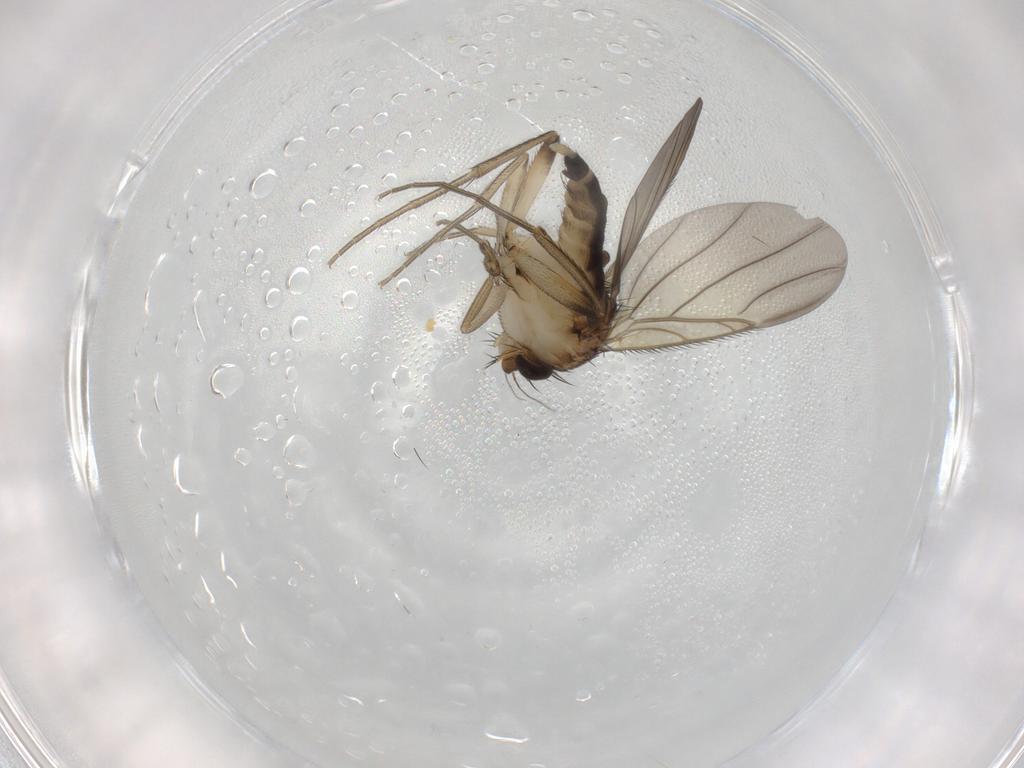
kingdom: Animalia
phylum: Arthropoda
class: Insecta
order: Diptera
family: Phoridae
